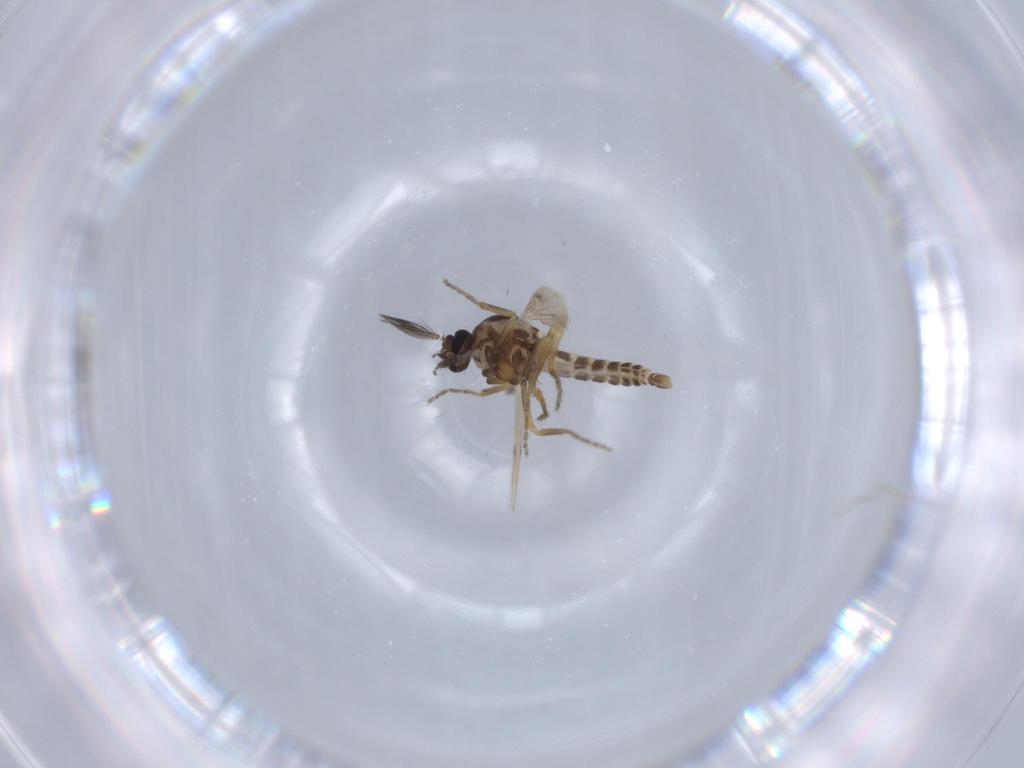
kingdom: Animalia
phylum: Arthropoda
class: Insecta
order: Diptera
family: Ceratopogonidae
